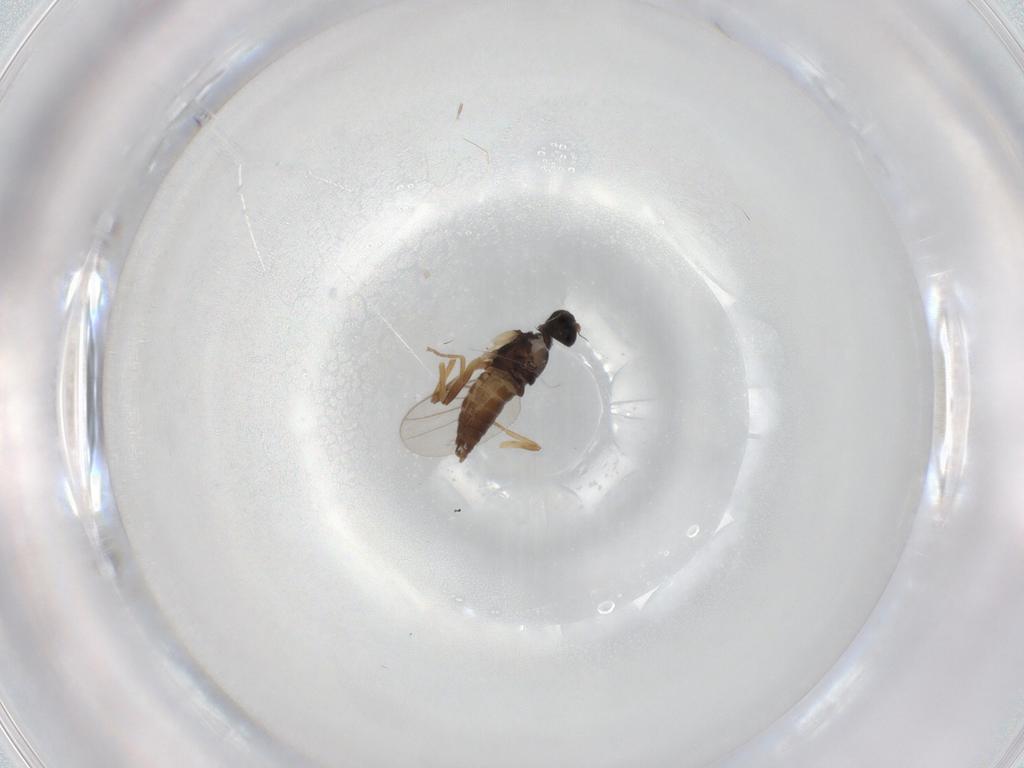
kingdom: Animalia
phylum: Arthropoda
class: Insecta
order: Diptera
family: Hybotidae
